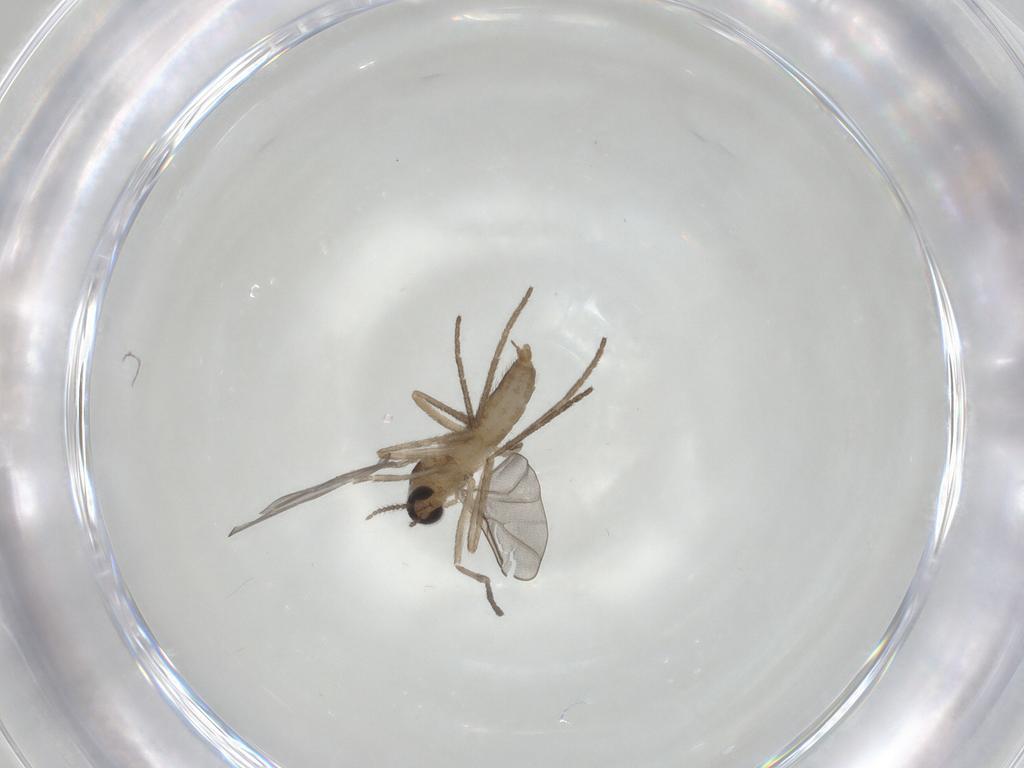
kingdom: Animalia
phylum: Arthropoda
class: Insecta
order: Diptera
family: Cecidomyiidae
